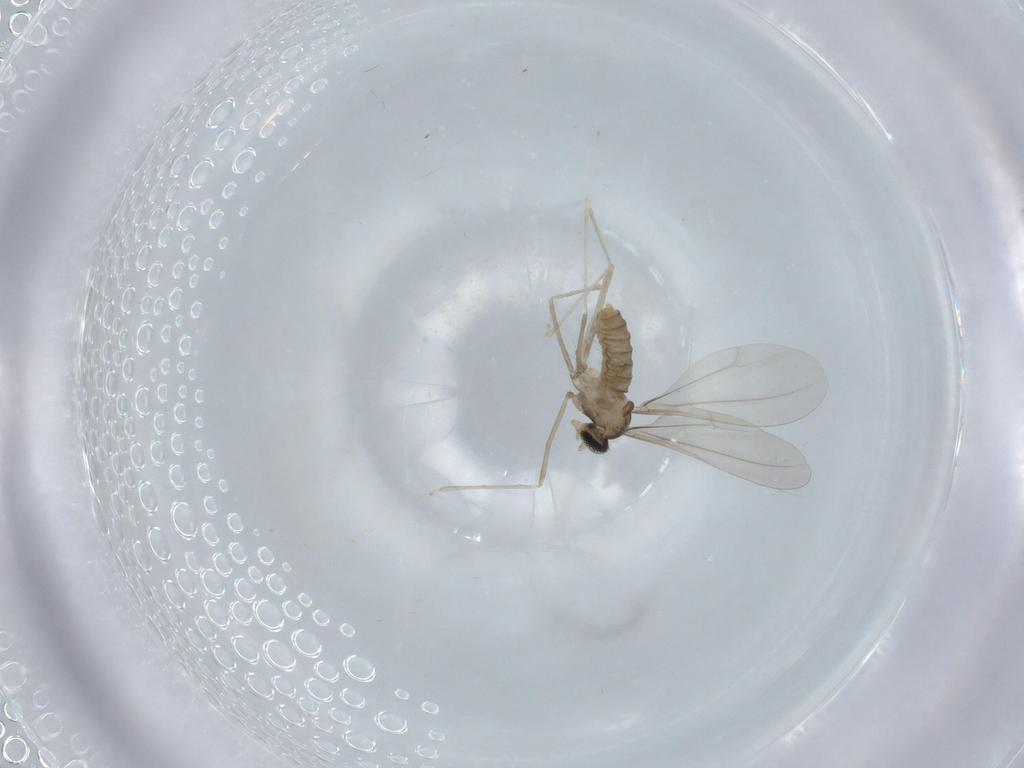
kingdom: Animalia
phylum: Arthropoda
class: Insecta
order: Diptera
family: Cecidomyiidae
